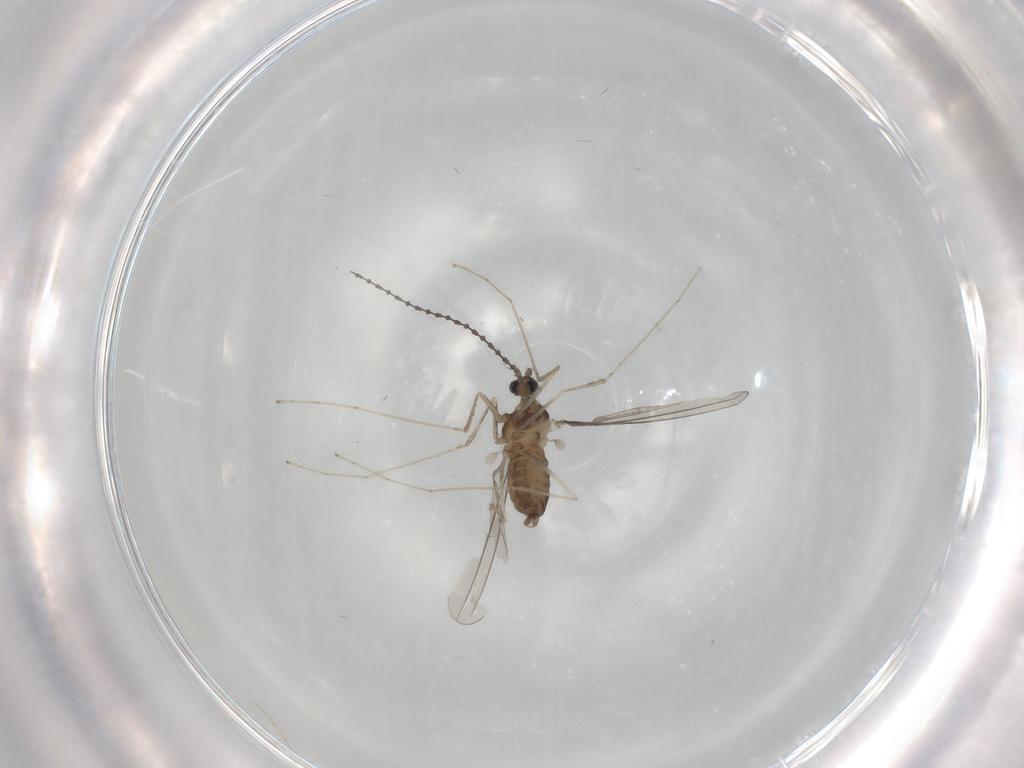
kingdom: Animalia
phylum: Arthropoda
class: Insecta
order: Diptera
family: Cecidomyiidae
